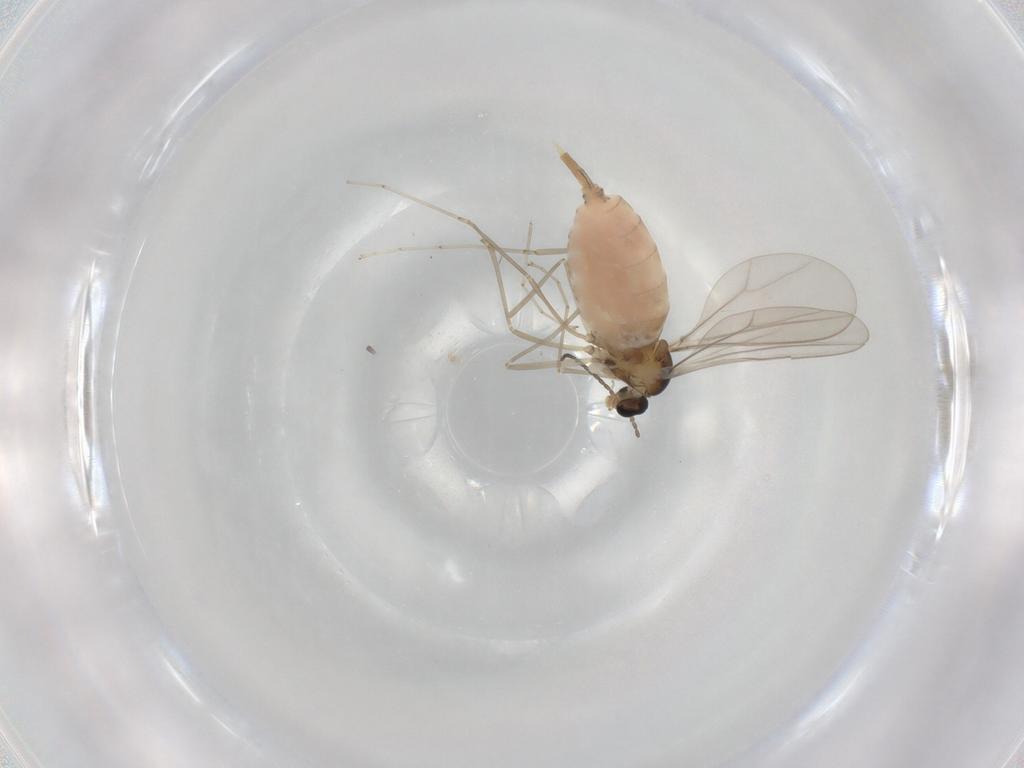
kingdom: Animalia
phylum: Arthropoda
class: Insecta
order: Diptera
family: Cecidomyiidae
